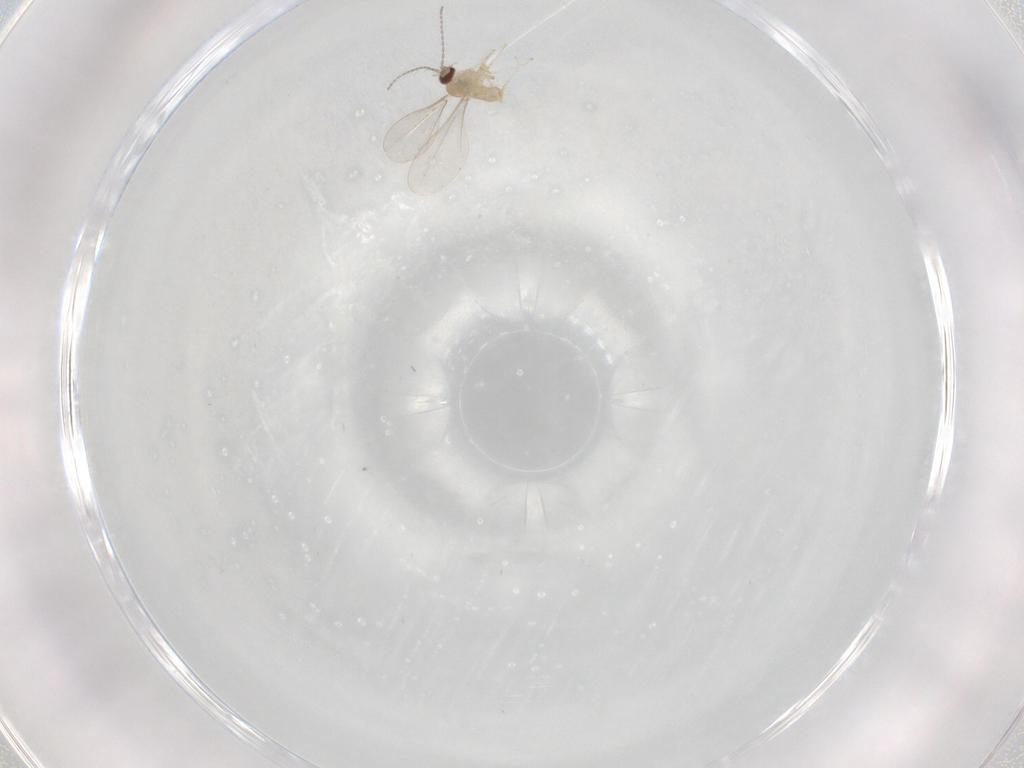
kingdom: Animalia
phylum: Arthropoda
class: Insecta
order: Diptera
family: Cecidomyiidae
